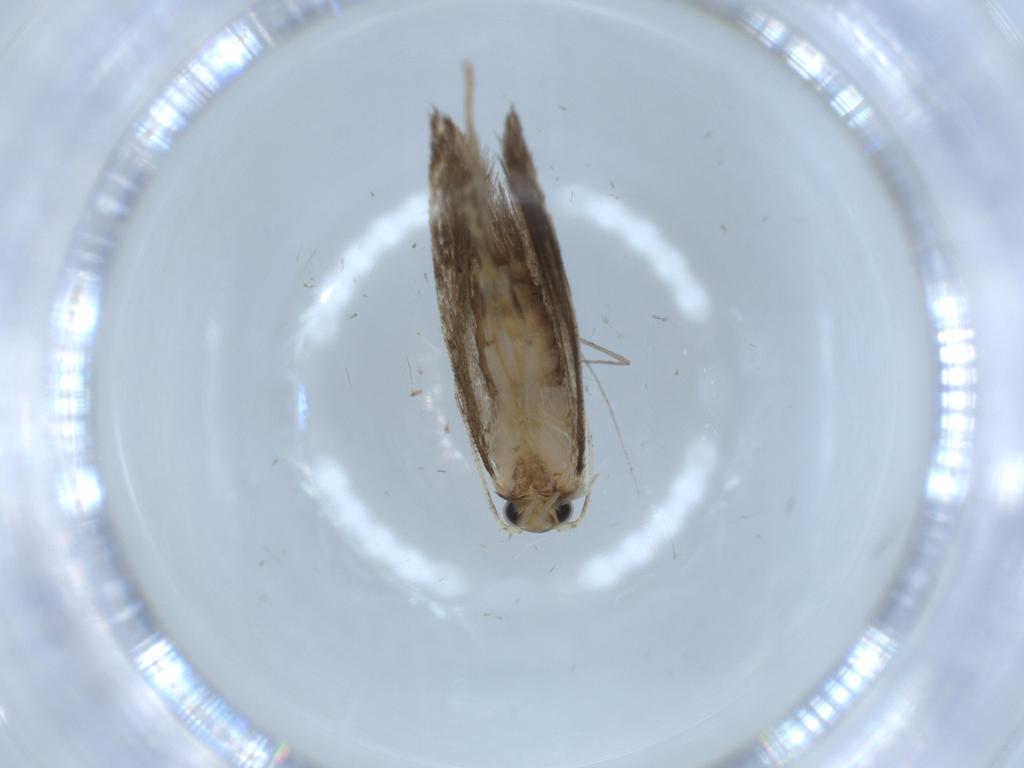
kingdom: Animalia
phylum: Arthropoda
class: Insecta
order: Lepidoptera
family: Tineidae
